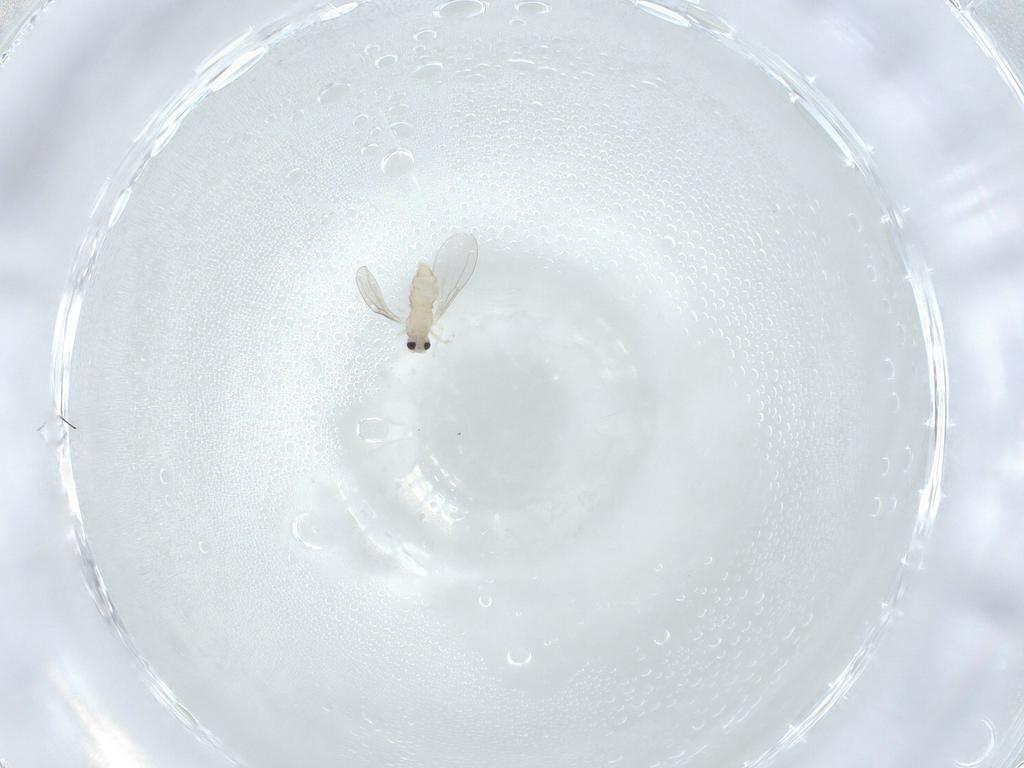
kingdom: Animalia
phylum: Arthropoda
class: Insecta
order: Diptera
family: Cecidomyiidae
